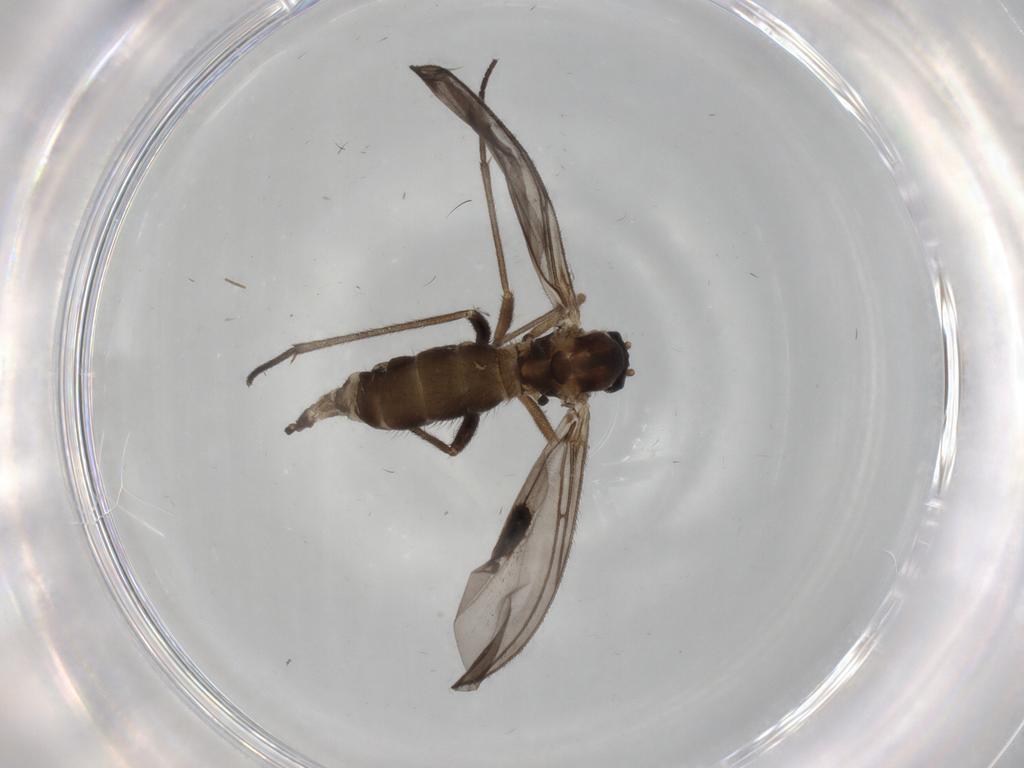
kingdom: Animalia
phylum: Arthropoda
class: Insecta
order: Diptera
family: Sciaridae
